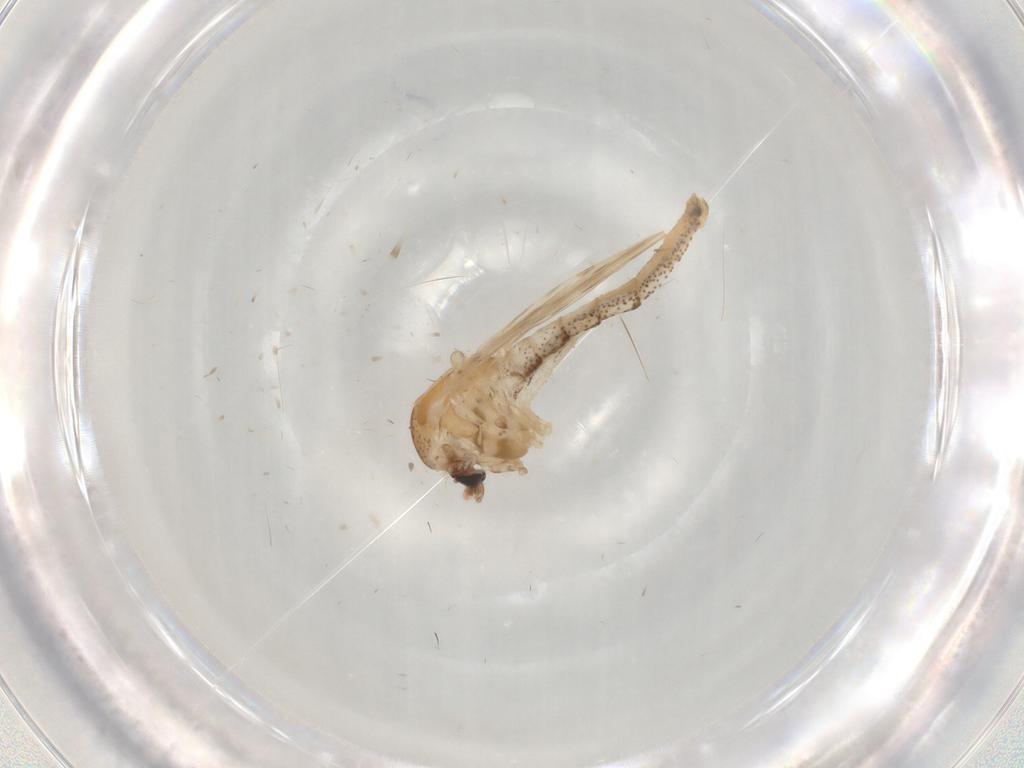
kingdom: Animalia
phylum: Arthropoda
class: Insecta
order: Diptera
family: Chaoboridae
